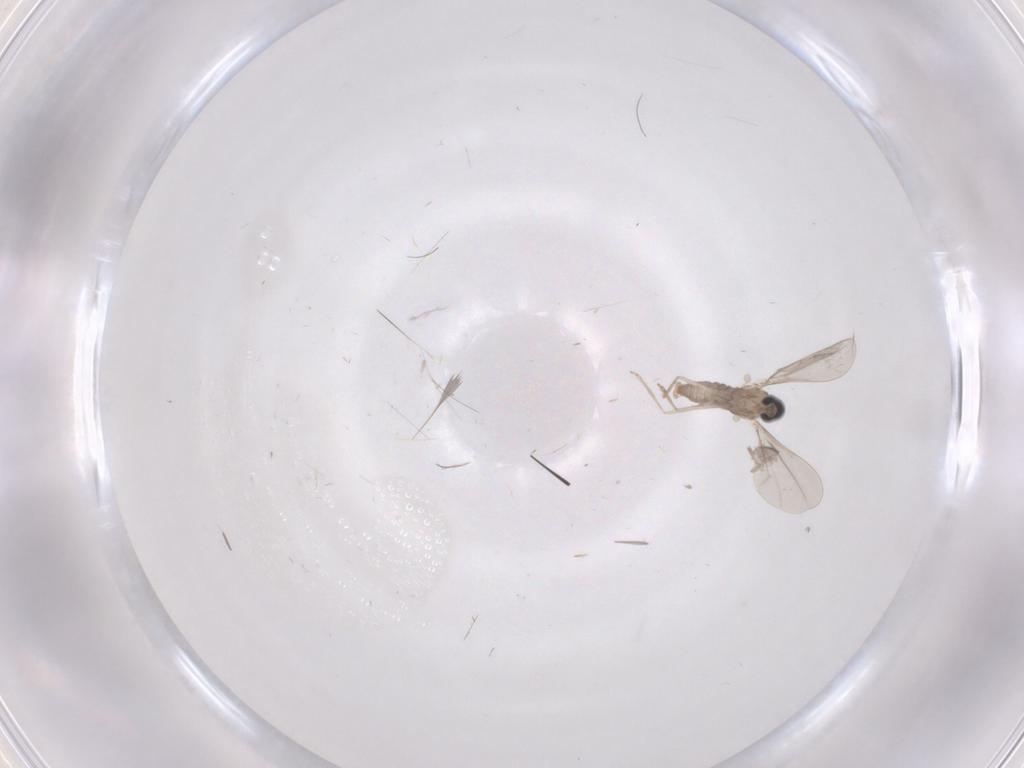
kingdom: Animalia
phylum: Arthropoda
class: Insecta
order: Diptera
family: Cecidomyiidae
